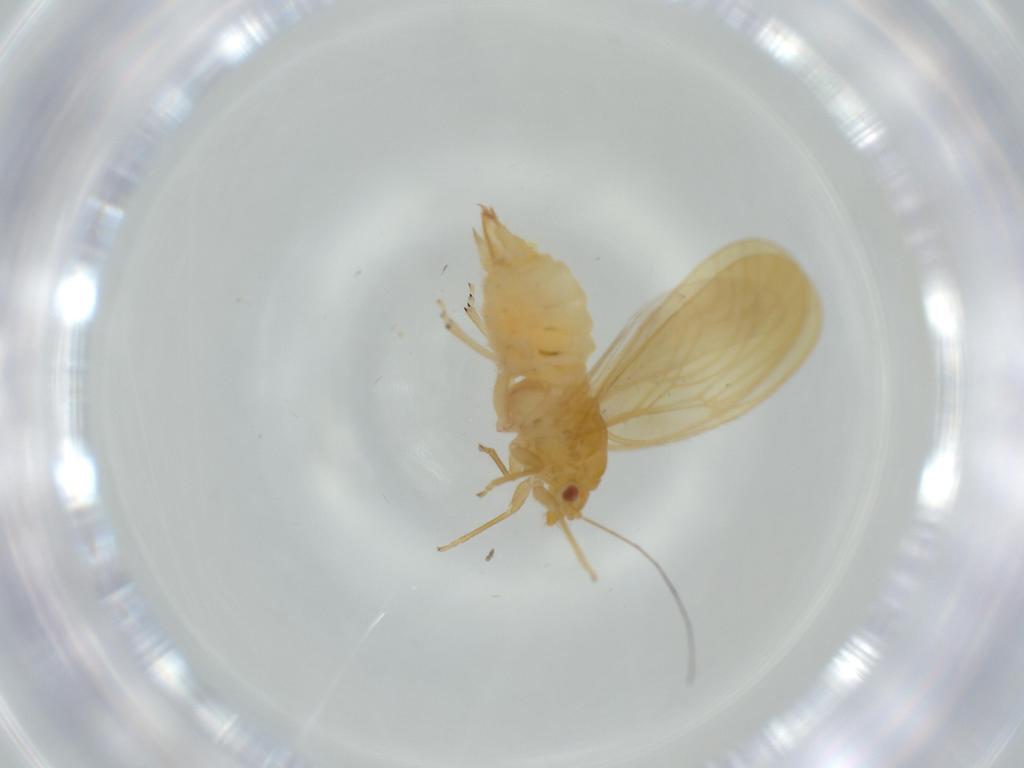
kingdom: Animalia
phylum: Arthropoda
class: Insecta
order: Hemiptera
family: Psyllidae
